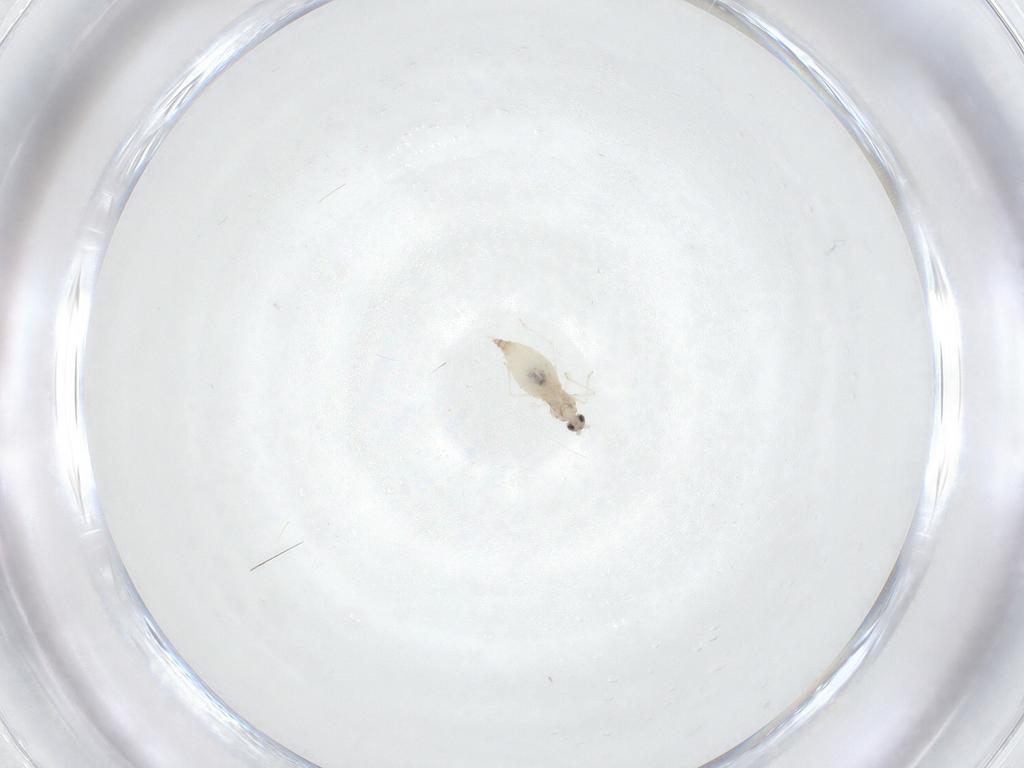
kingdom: Animalia
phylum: Arthropoda
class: Insecta
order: Diptera
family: Cecidomyiidae
